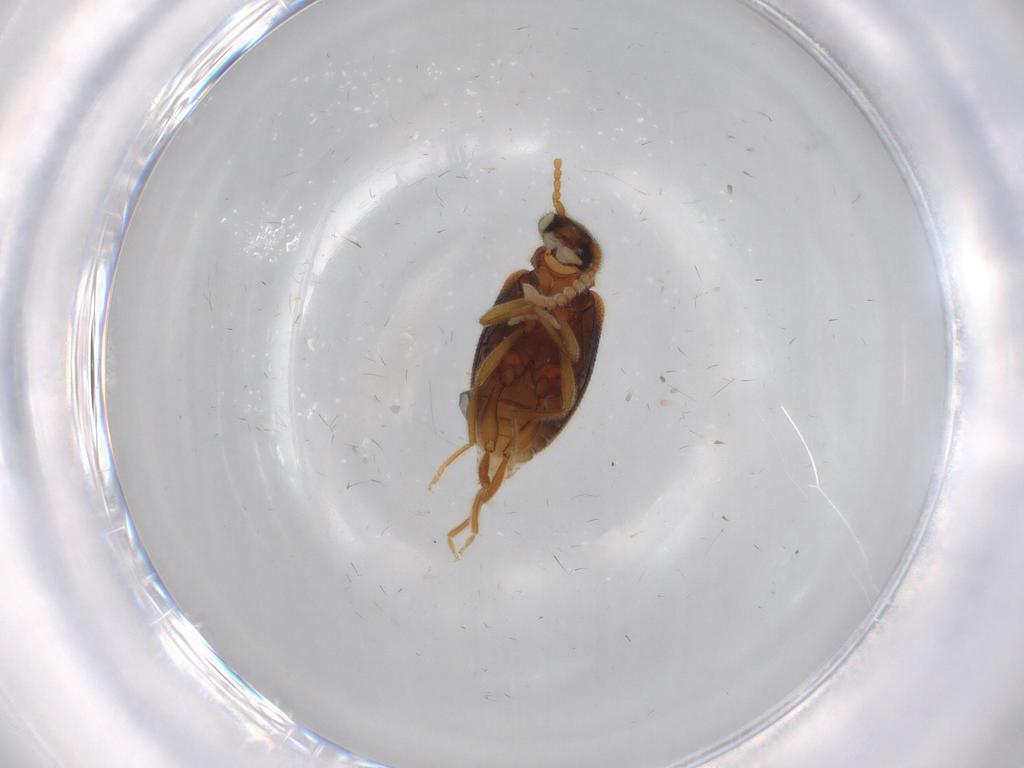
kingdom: Animalia
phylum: Arthropoda
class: Insecta
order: Coleoptera
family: Aderidae
